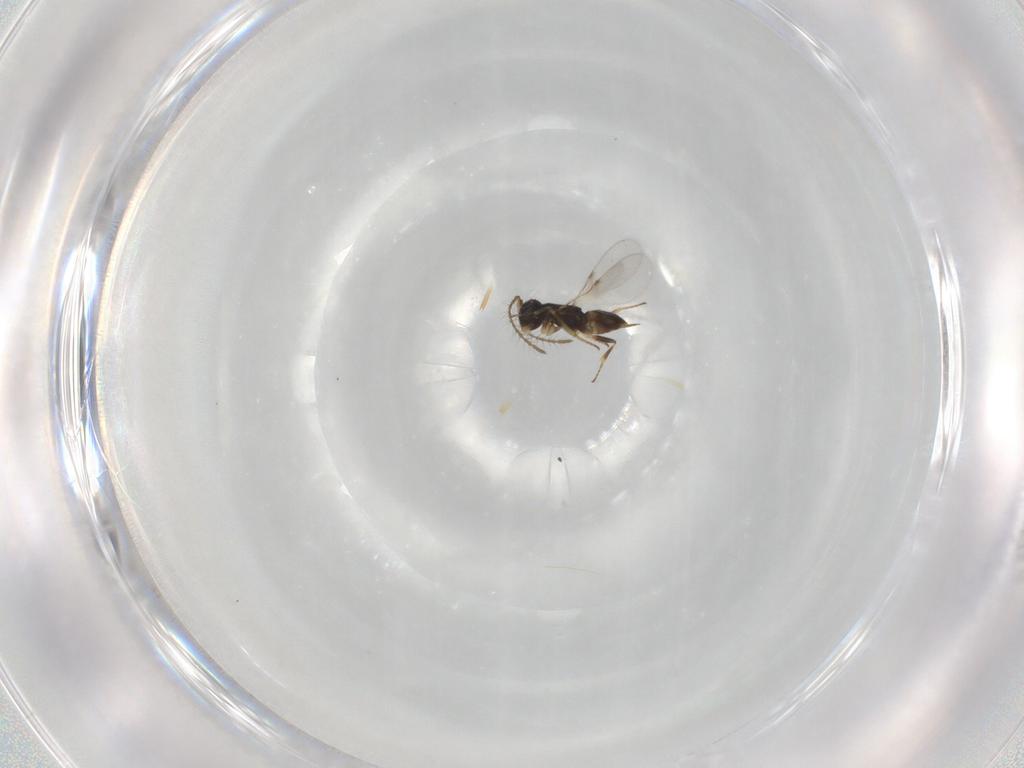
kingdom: Animalia
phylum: Arthropoda
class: Insecta
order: Hymenoptera
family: Encyrtidae
